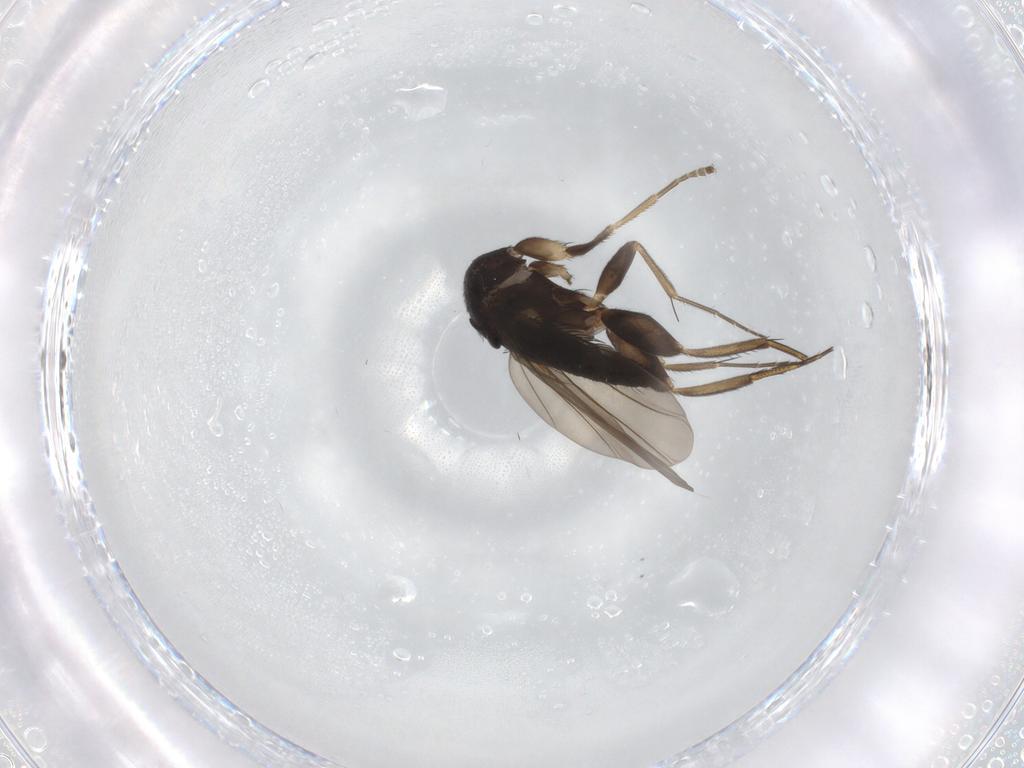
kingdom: Animalia
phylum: Arthropoda
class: Insecta
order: Diptera
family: Phoridae
